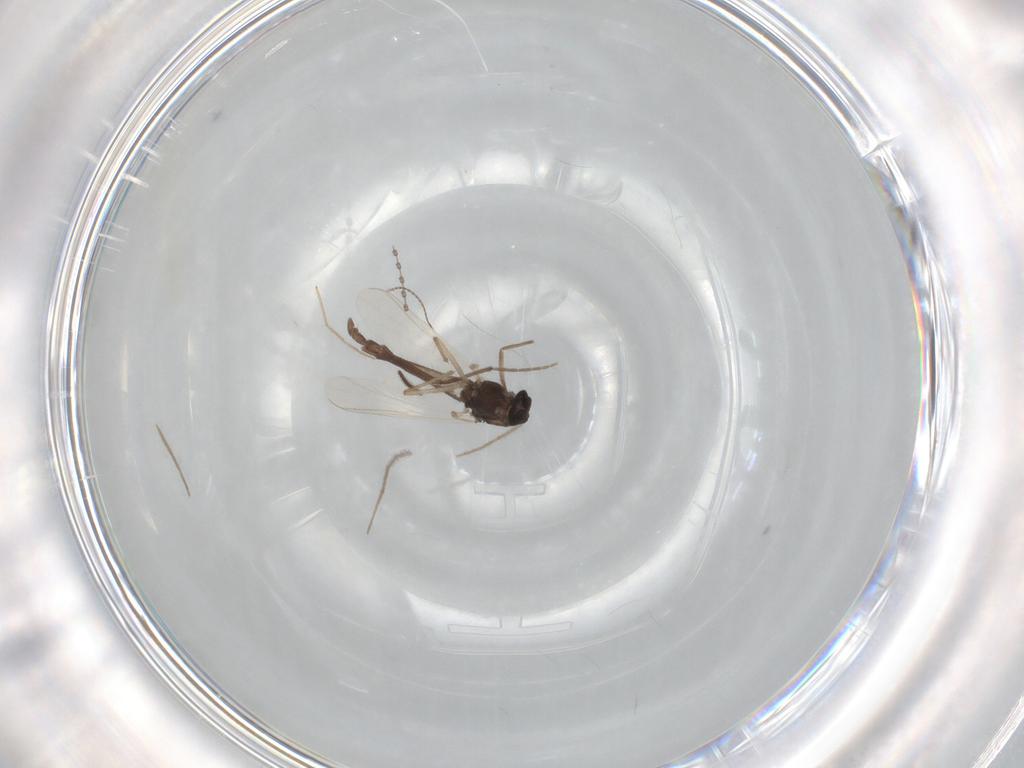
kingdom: Animalia
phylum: Arthropoda
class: Insecta
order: Diptera
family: Chironomidae
